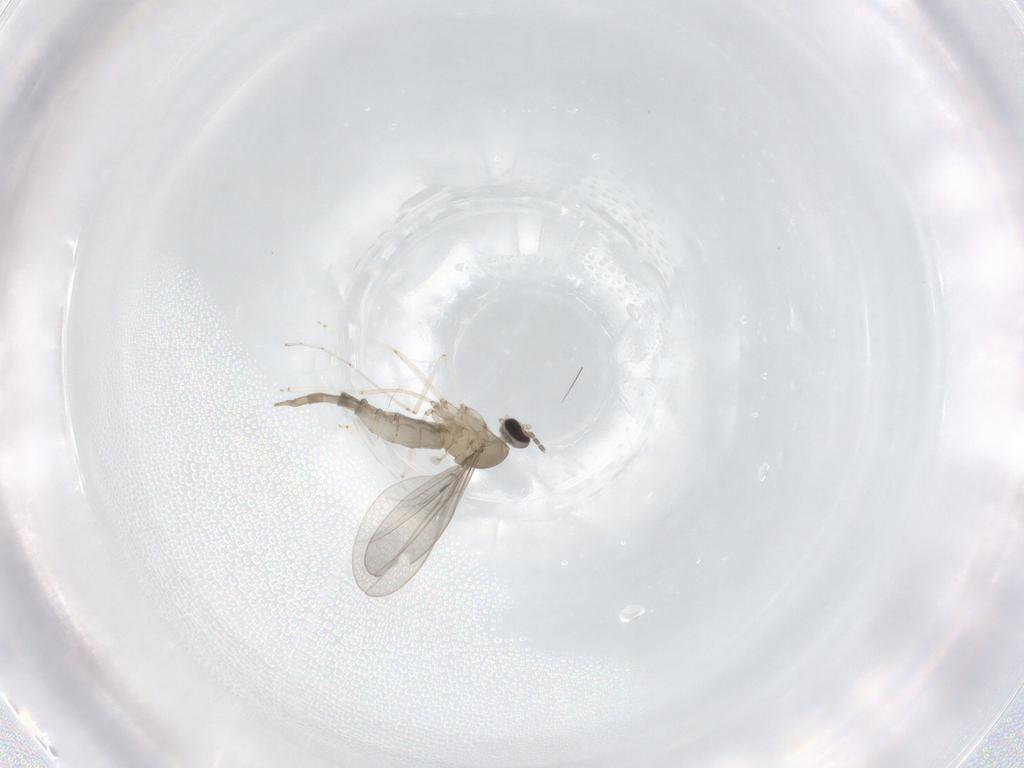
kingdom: Animalia
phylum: Arthropoda
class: Insecta
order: Diptera
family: Cecidomyiidae
